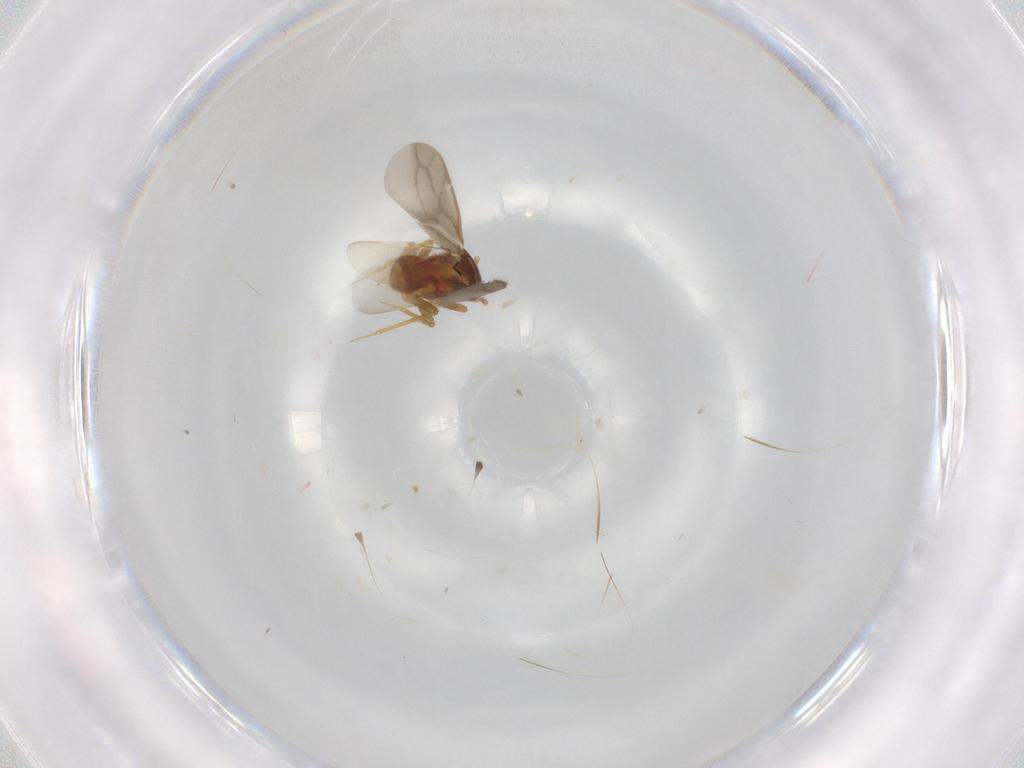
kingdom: Animalia
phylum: Arthropoda
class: Insecta
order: Hemiptera
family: Ceratocombidae
